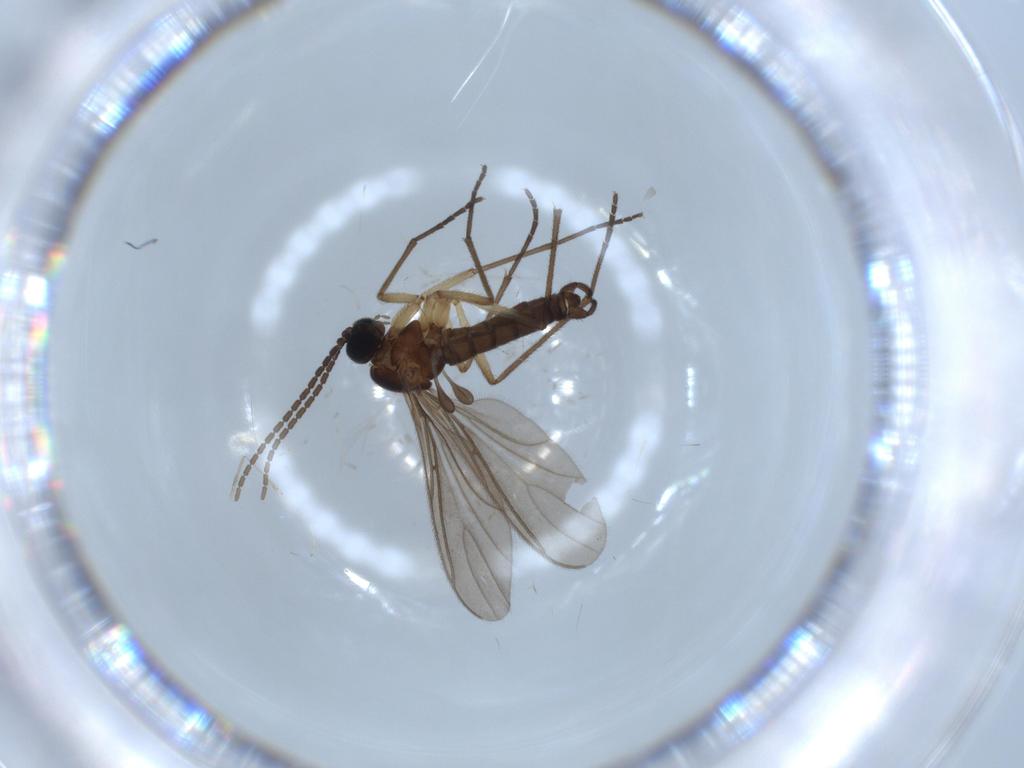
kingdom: Animalia
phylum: Arthropoda
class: Insecta
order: Diptera
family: Sciaridae
